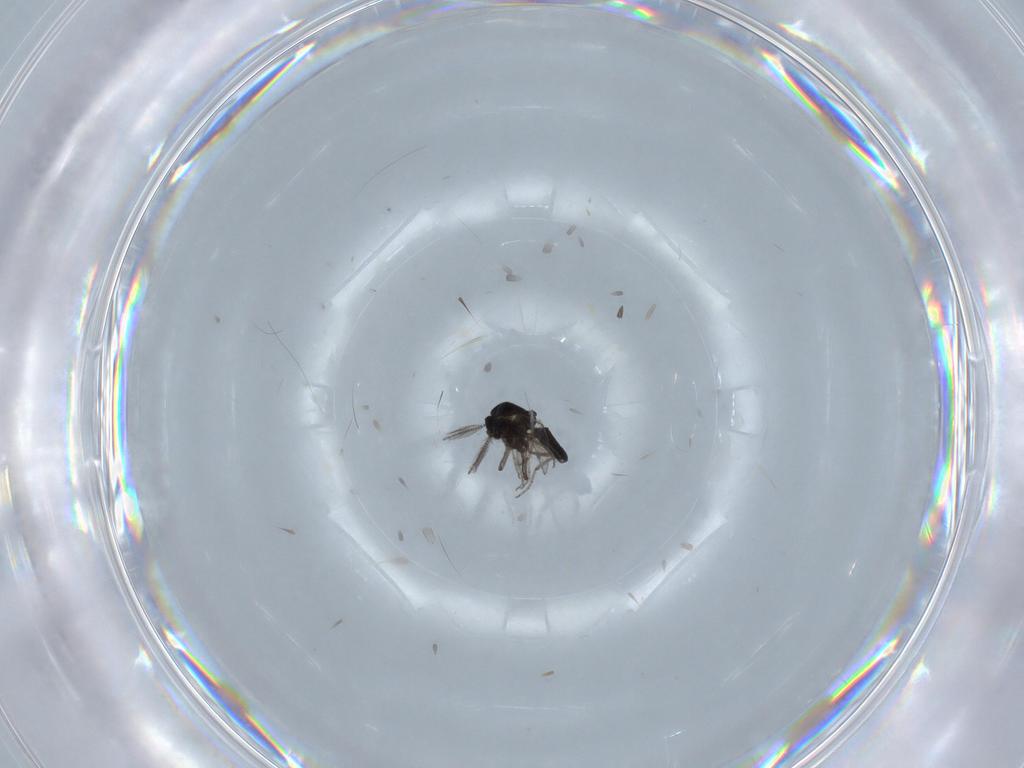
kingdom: Animalia
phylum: Arthropoda
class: Insecta
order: Diptera
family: Ceratopogonidae
